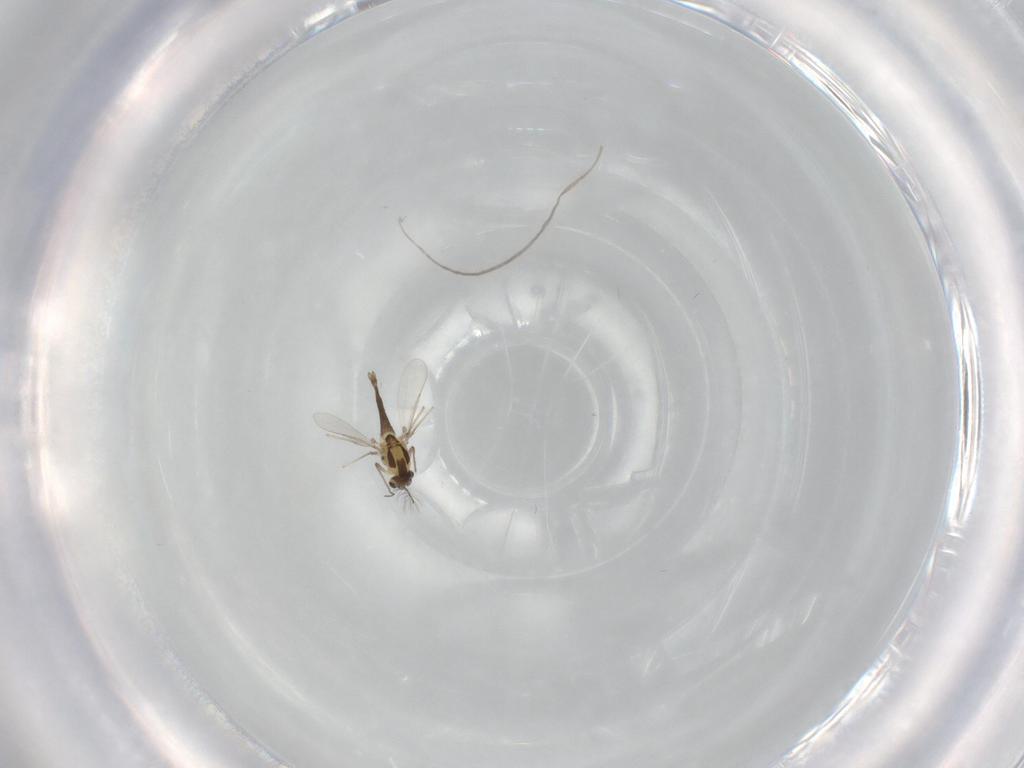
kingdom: Animalia
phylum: Arthropoda
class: Insecta
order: Diptera
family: Chironomidae
